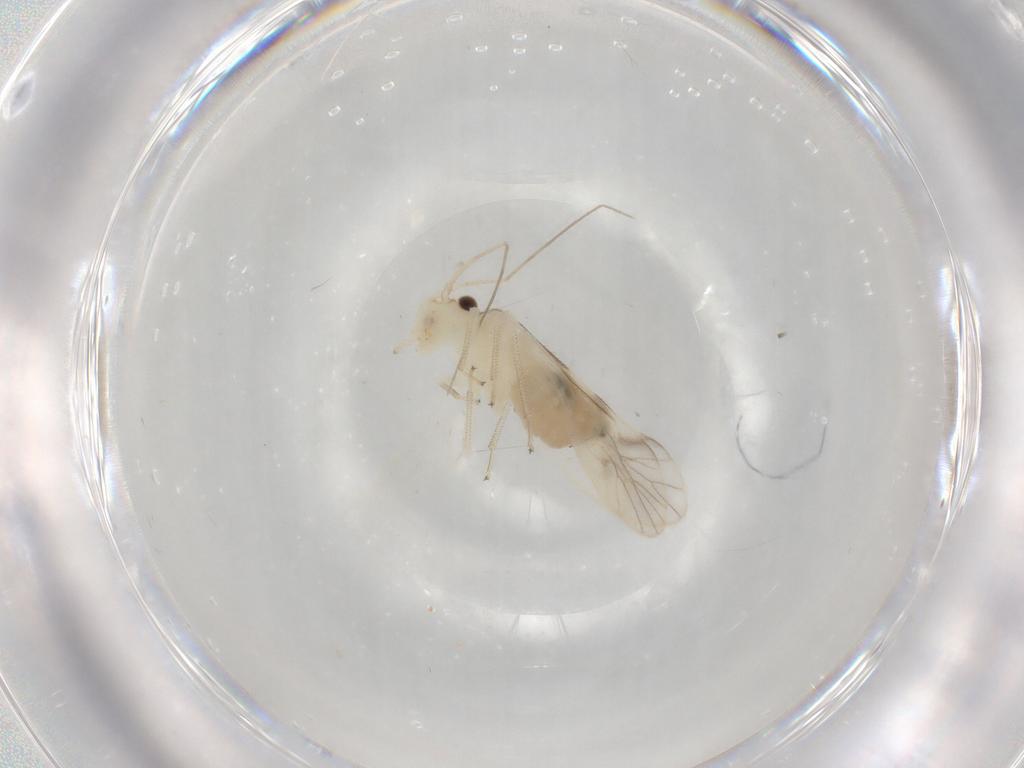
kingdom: Animalia
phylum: Arthropoda
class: Insecta
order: Psocodea
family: Caeciliusidae
